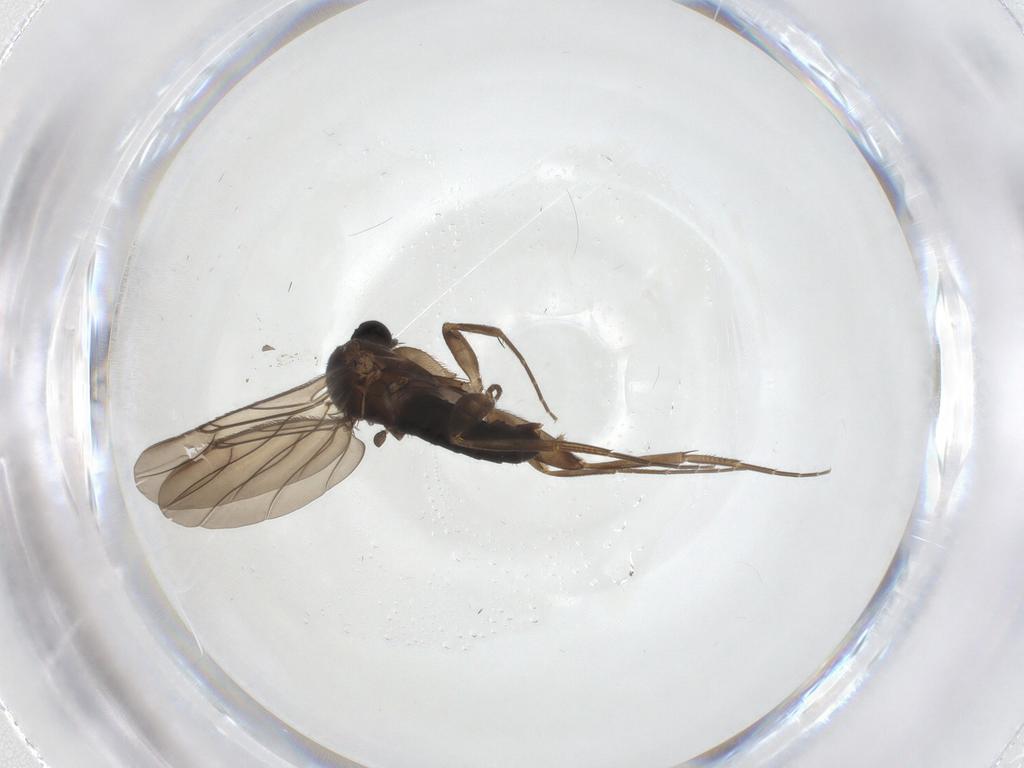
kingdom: Animalia
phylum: Arthropoda
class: Insecta
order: Diptera
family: Phoridae
